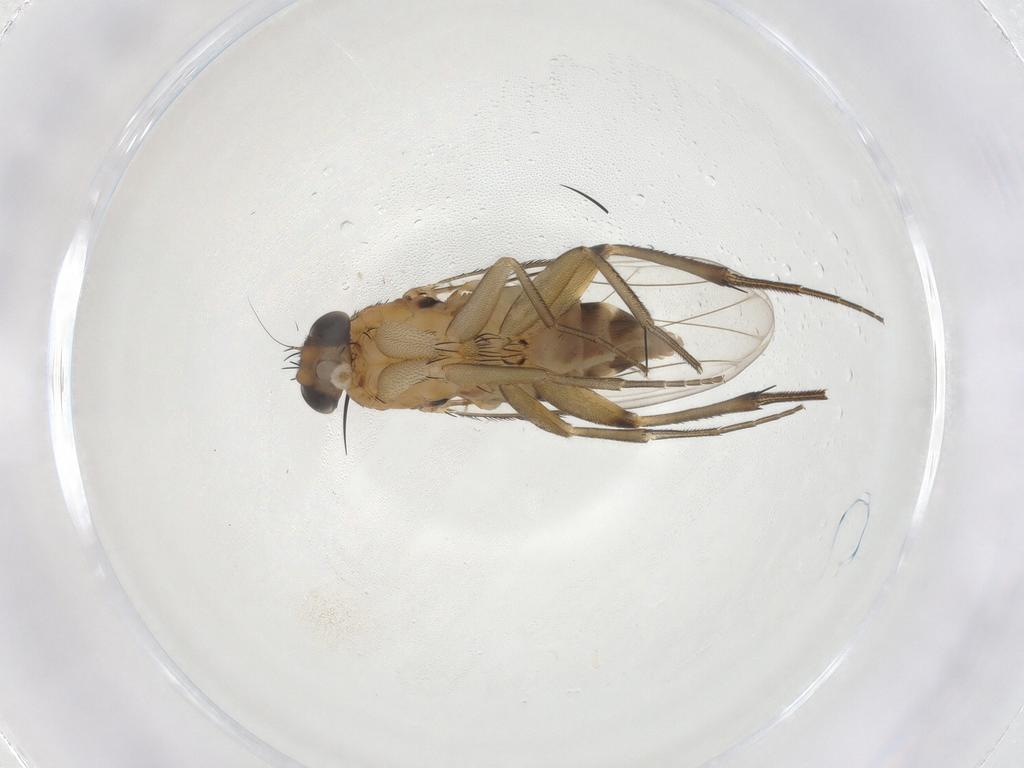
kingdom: Animalia
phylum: Arthropoda
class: Insecta
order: Diptera
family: Phoridae
